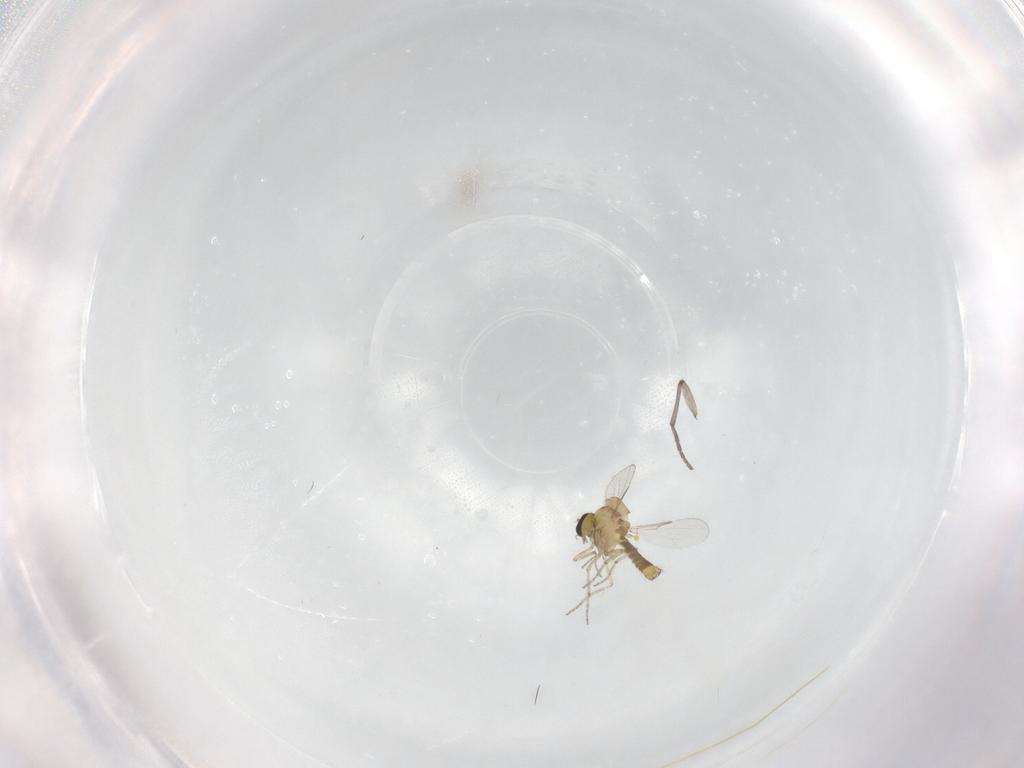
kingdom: Animalia
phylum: Arthropoda
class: Insecta
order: Diptera
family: Sciaridae
